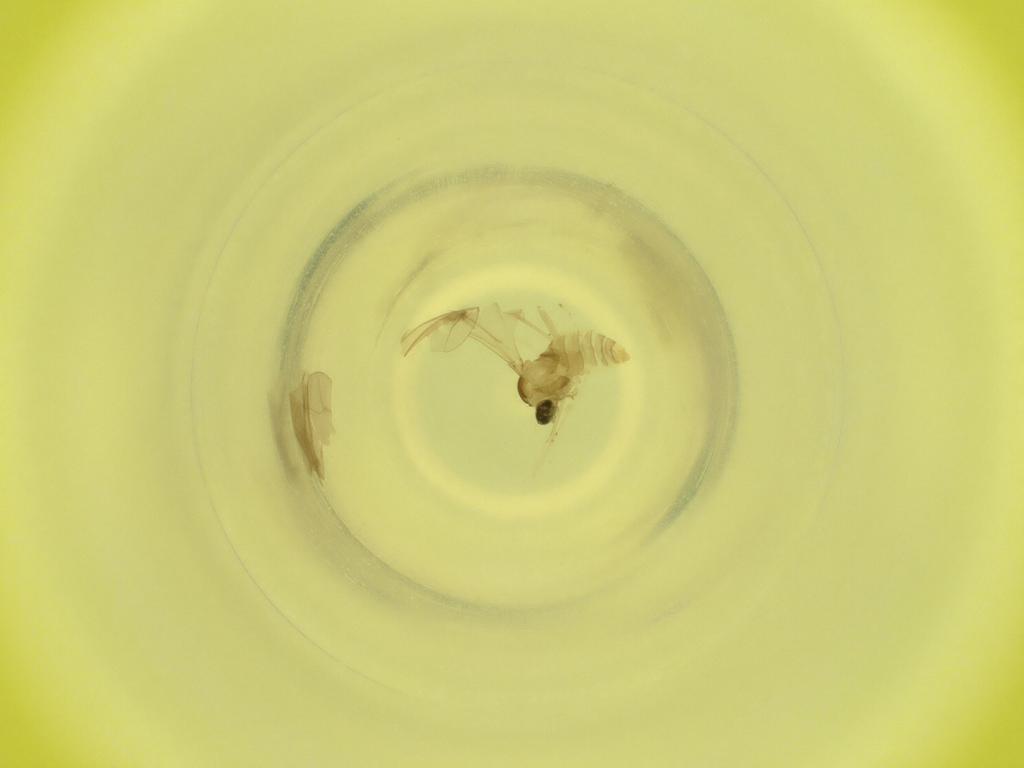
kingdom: Animalia
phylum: Arthropoda
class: Insecta
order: Diptera
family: Cecidomyiidae
